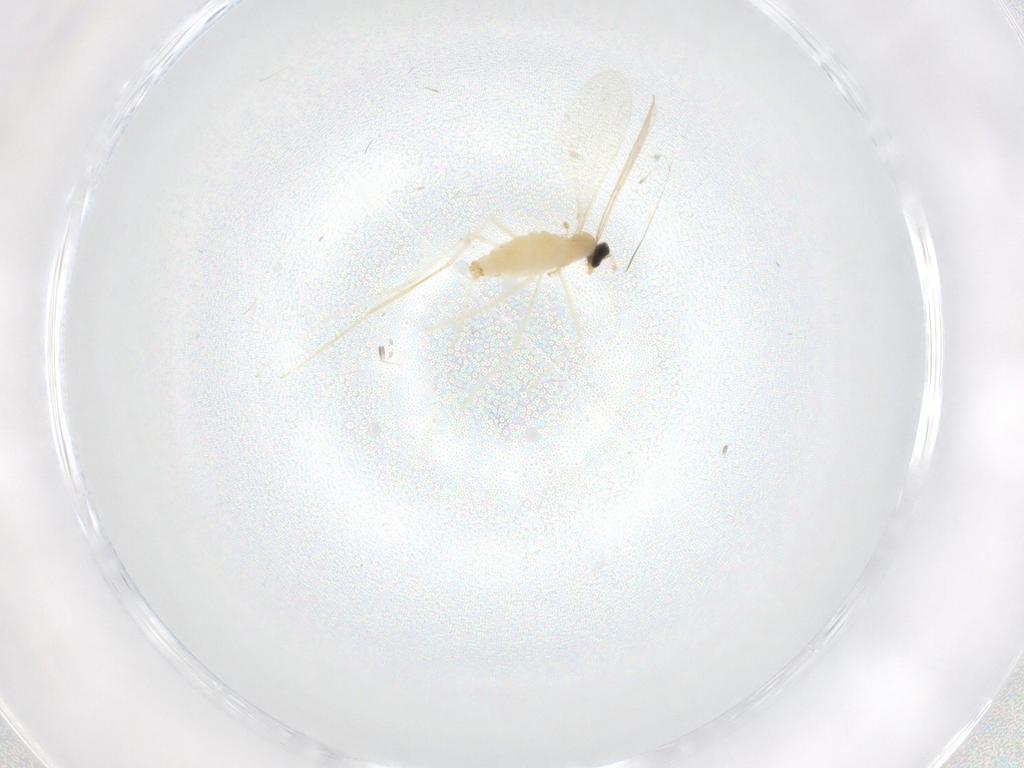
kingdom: Animalia
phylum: Arthropoda
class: Insecta
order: Diptera
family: Cecidomyiidae
